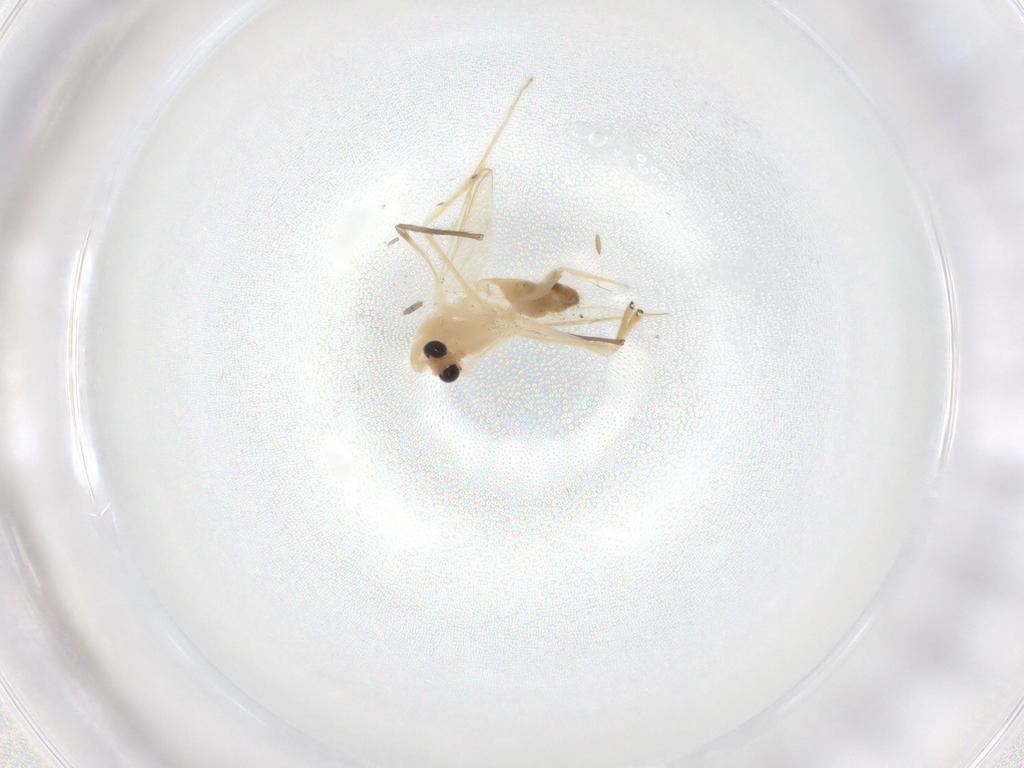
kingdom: Animalia
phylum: Arthropoda
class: Insecta
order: Diptera
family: Chironomidae
